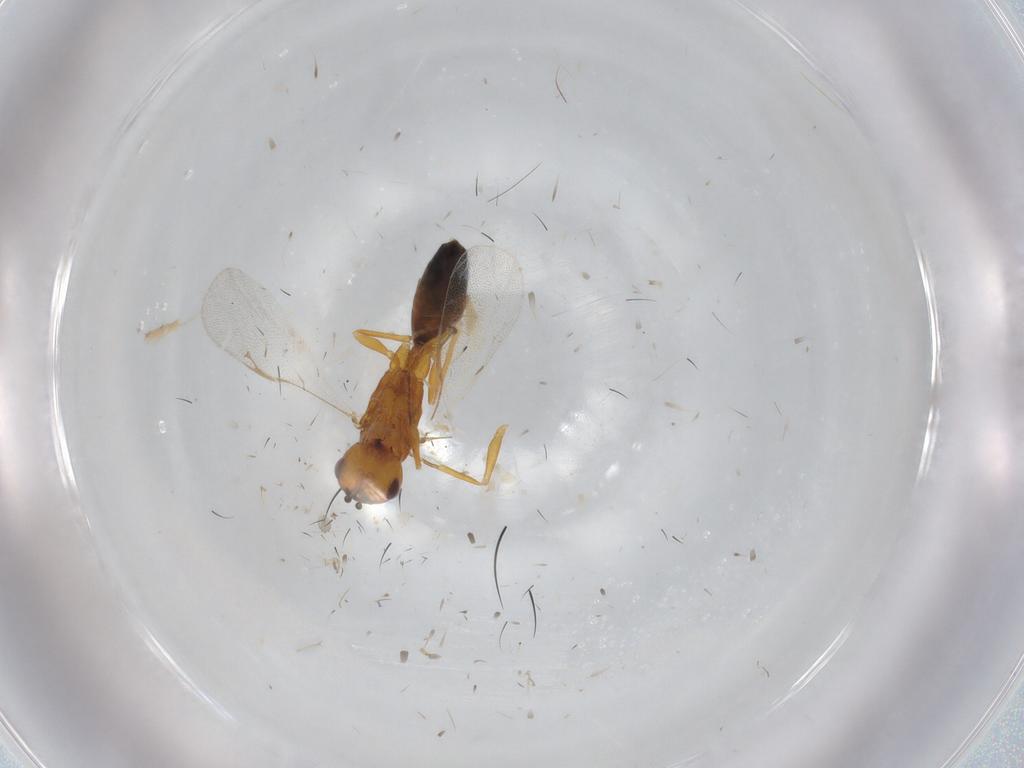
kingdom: Animalia
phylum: Arthropoda
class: Insecta
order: Hymenoptera
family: Eurytomidae
